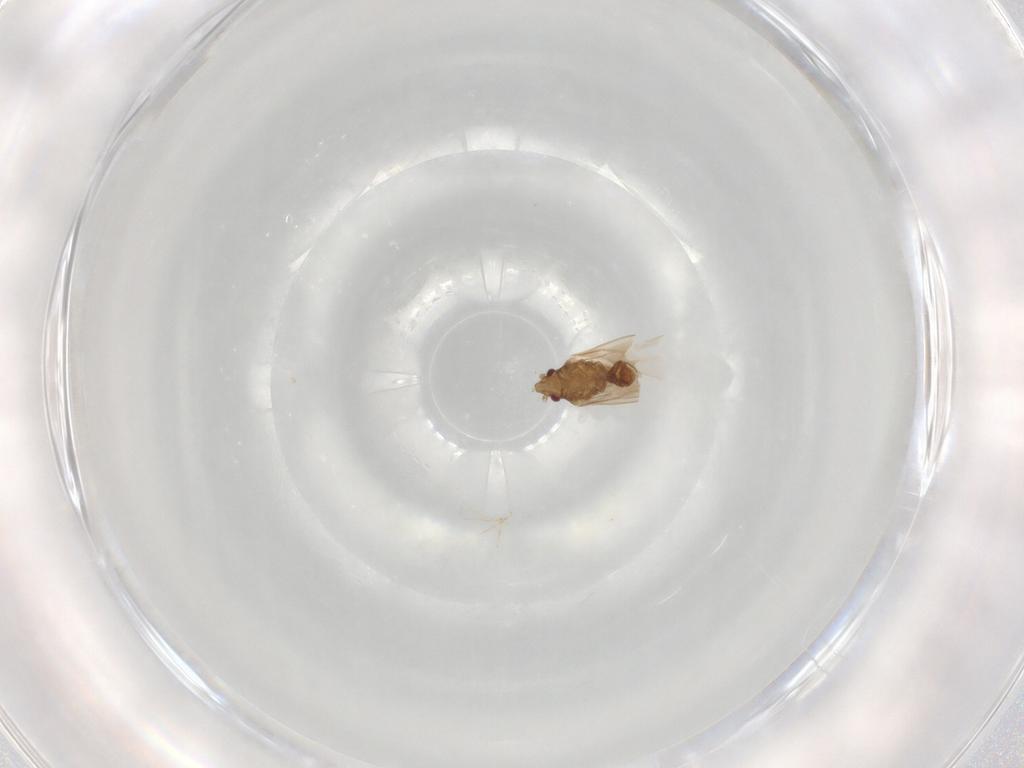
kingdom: Animalia
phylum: Arthropoda
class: Insecta
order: Hemiptera
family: Ceratocombidae
